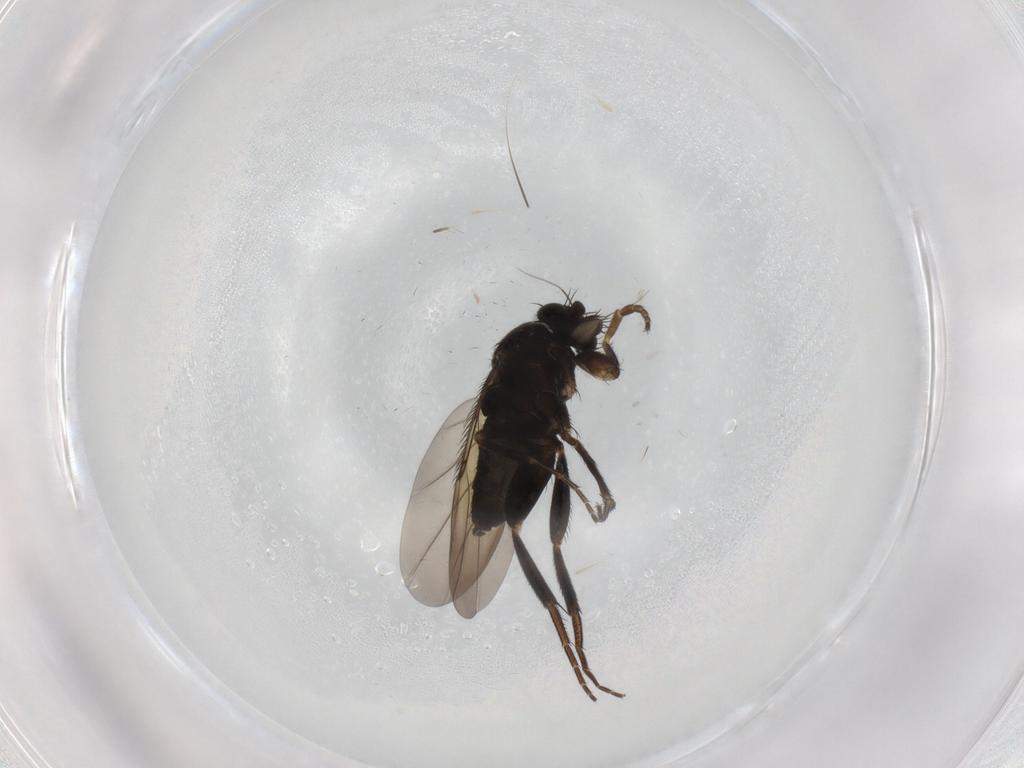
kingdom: Animalia
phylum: Arthropoda
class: Insecta
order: Diptera
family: Phoridae
